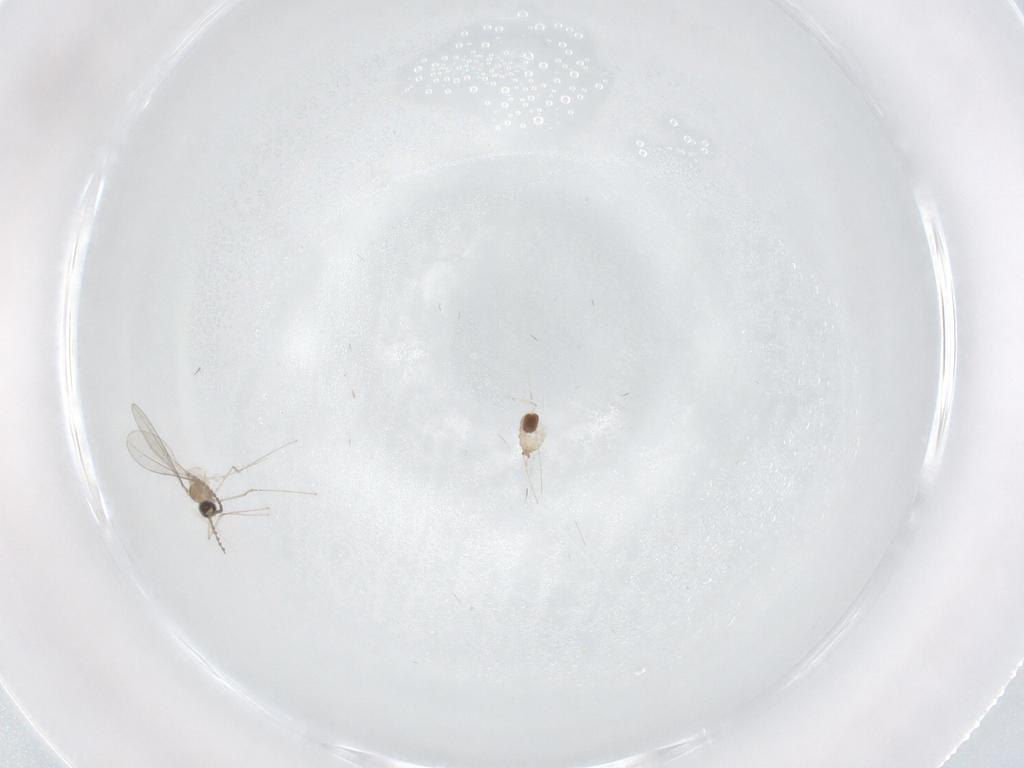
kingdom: Animalia
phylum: Arthropoda
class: Insecta
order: Diptera
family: Cecidomyiidae
